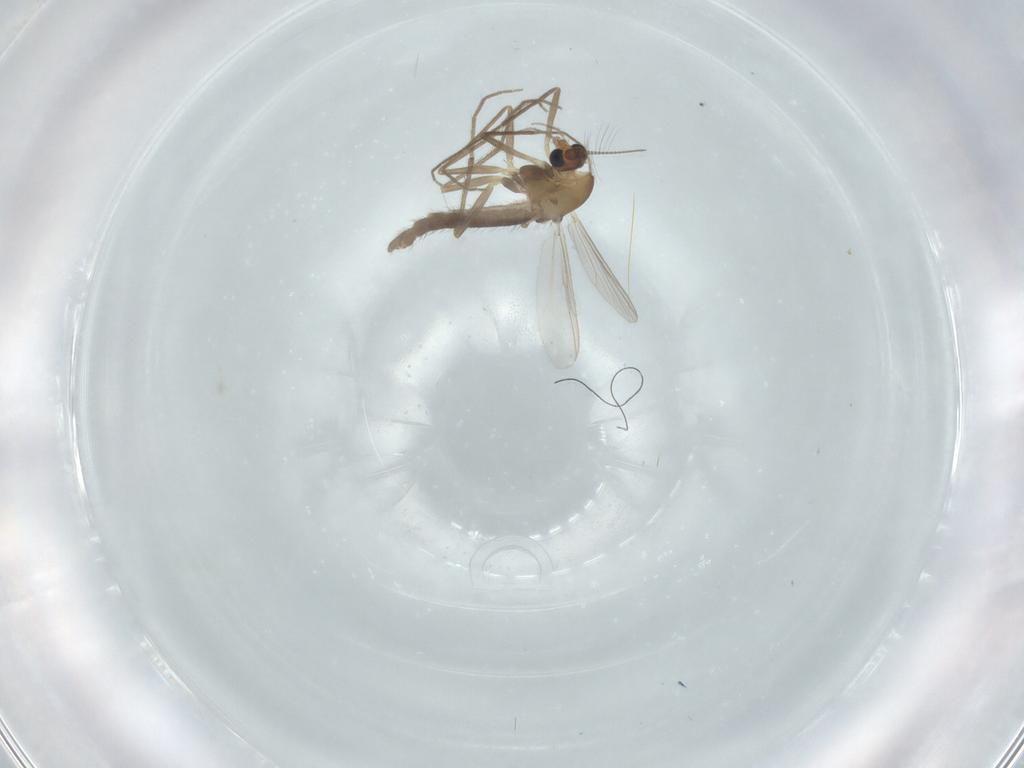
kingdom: Animalia
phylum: Arthropoda
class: Insecta
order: Diptera
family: Chironomidae
